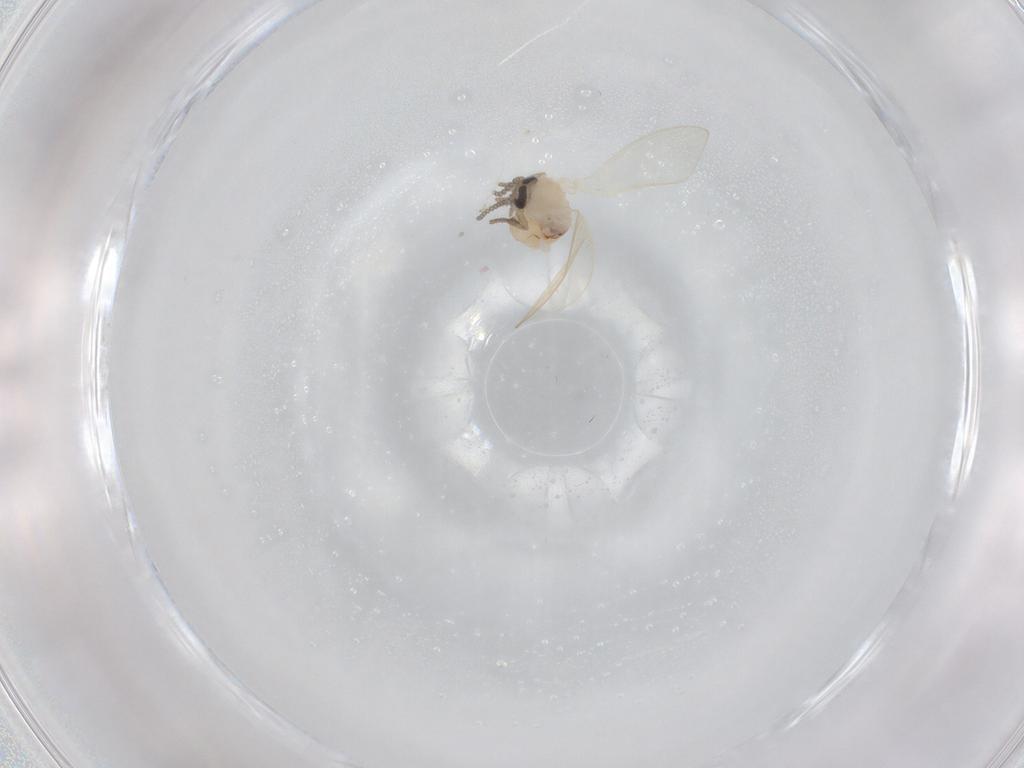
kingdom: Animalia
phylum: Arthropoda
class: Insecta
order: Diptera
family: Psychodidae
